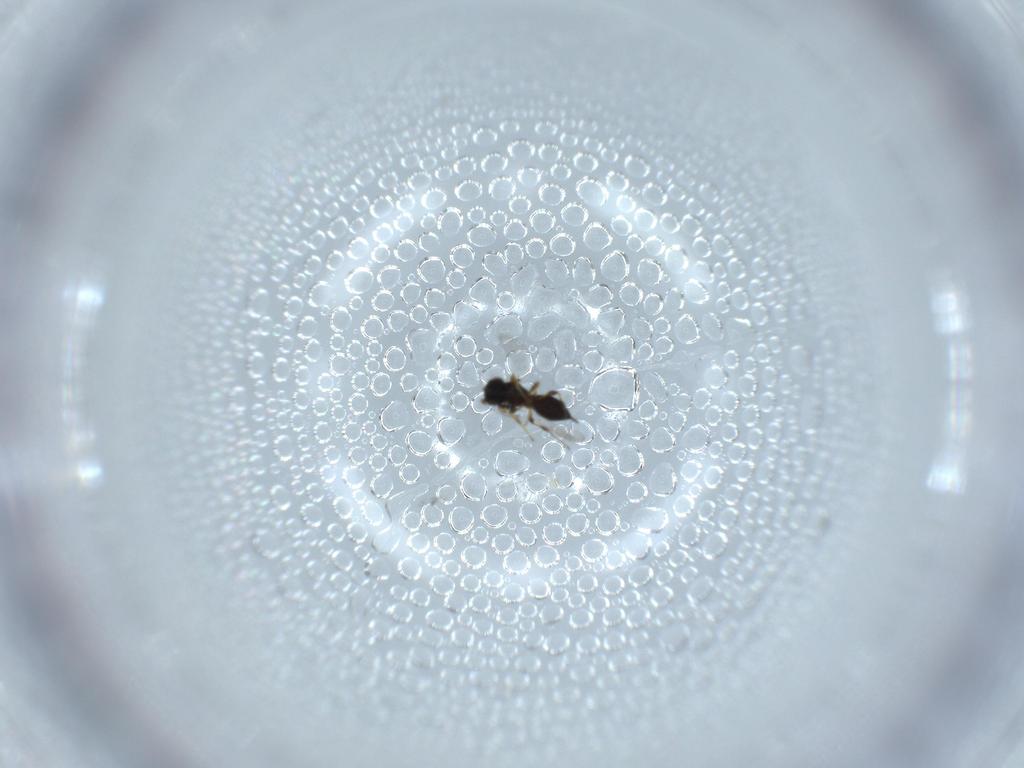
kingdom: Animalia
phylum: Arthropoda
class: Insecta
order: Hymenoptera
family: Platygastridae
